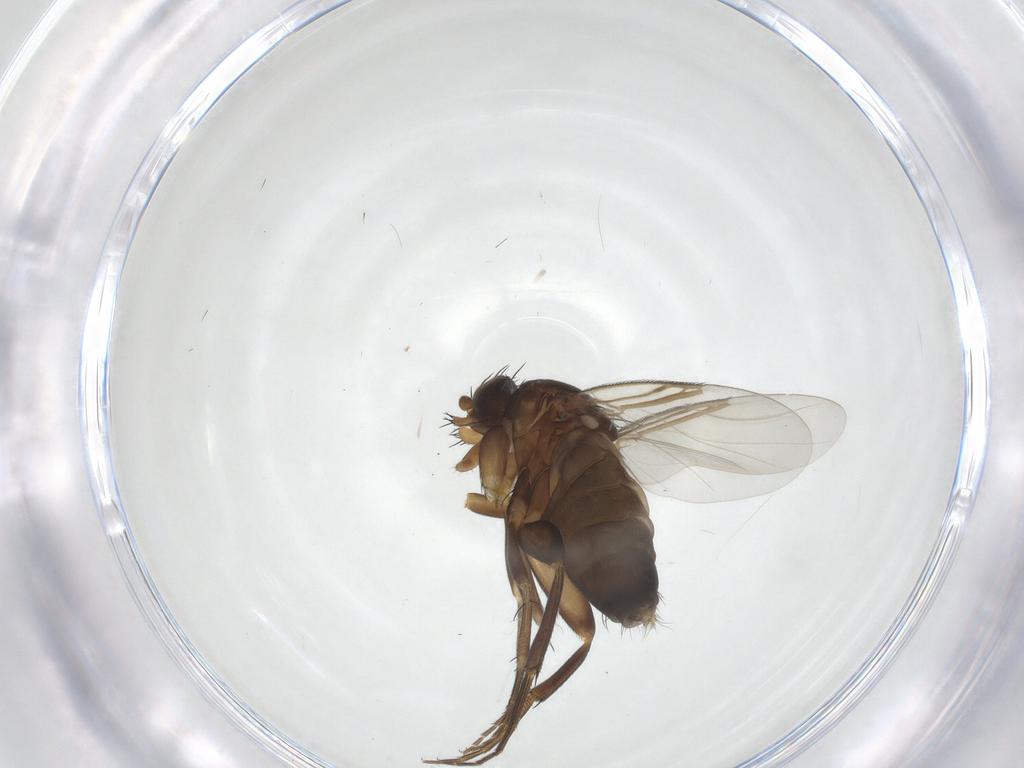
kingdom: Animalia
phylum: Arthropoda
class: Insecta
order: Diptera
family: Phoridae
